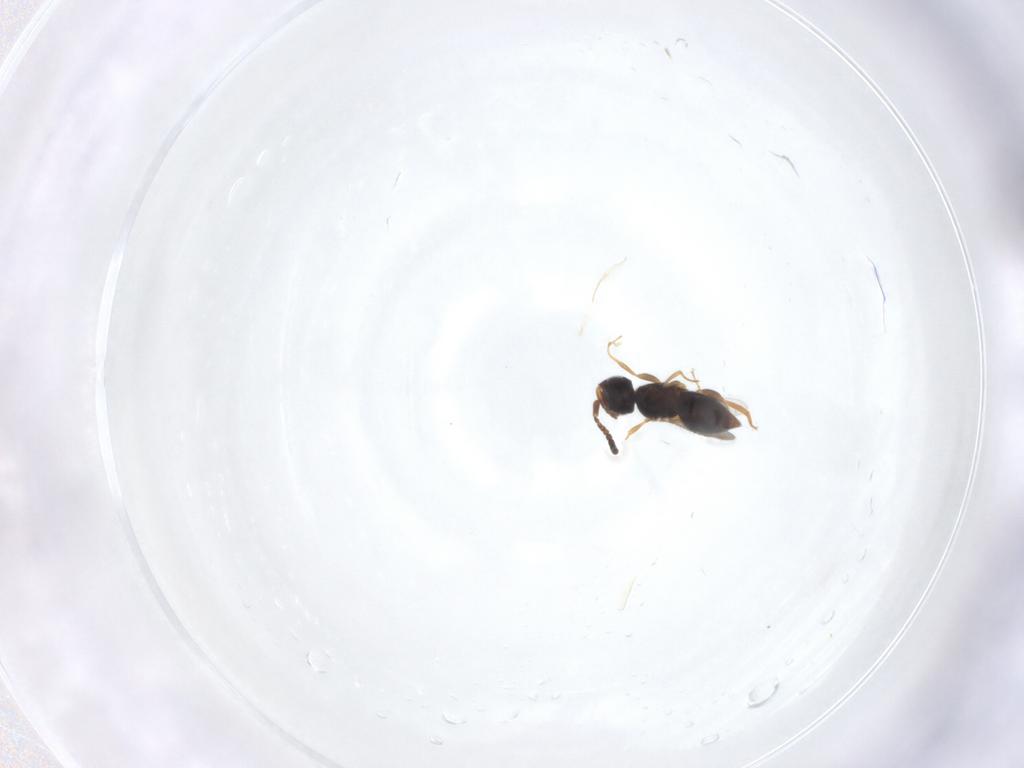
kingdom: Animalia
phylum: Arthropoda
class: Insecta
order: Hymenoptera
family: Ceraphronidae
